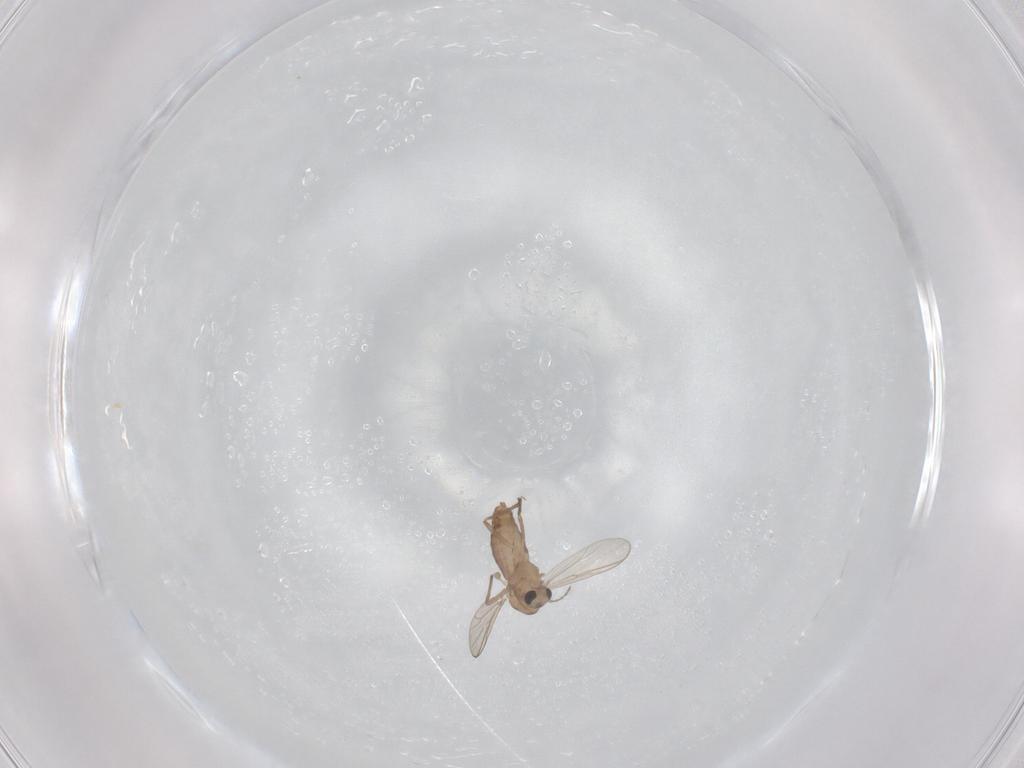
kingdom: Animalia
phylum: Arthropoda
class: Insecta
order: Diptera
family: Chironomidae
